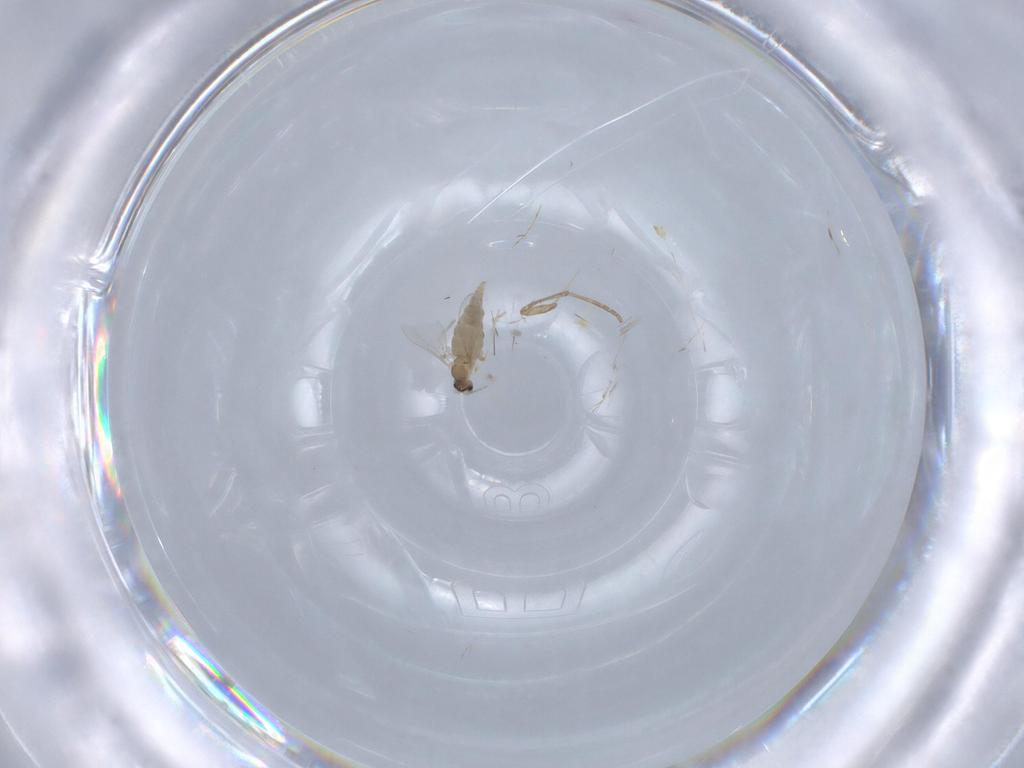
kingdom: Animalia
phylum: Arthropoda
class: Insecta
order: Diptera
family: Cecidomyiidae
